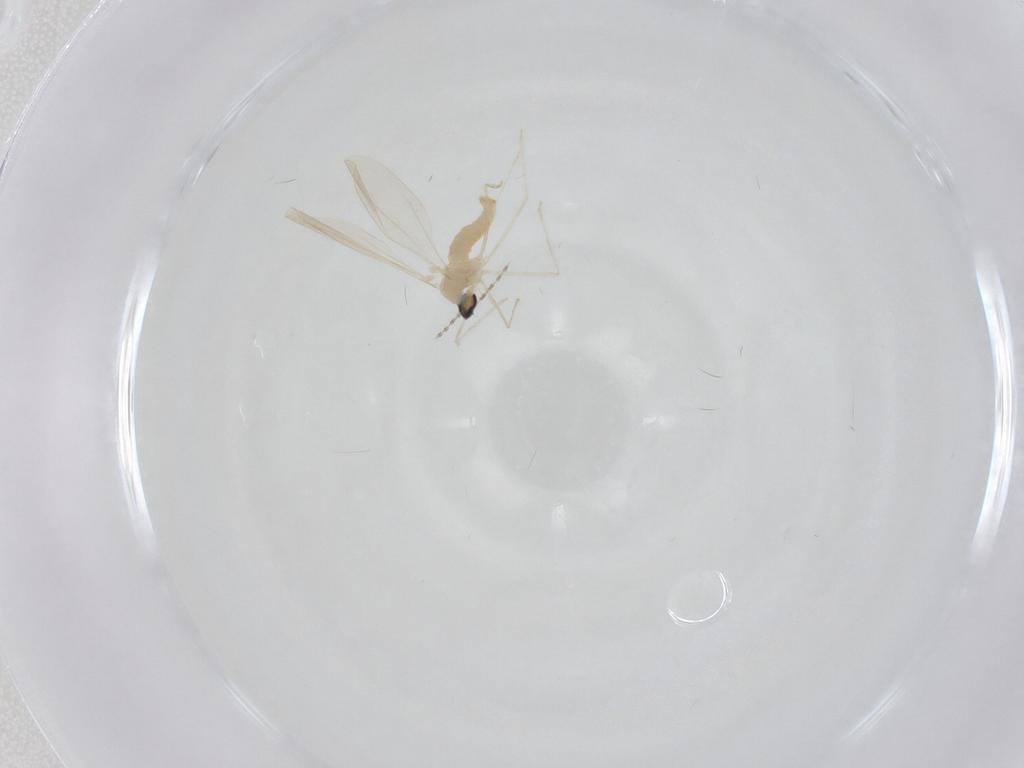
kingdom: Animalia
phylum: Arthropoda
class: Insecta
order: Diptera
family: Cecidomyiidae
